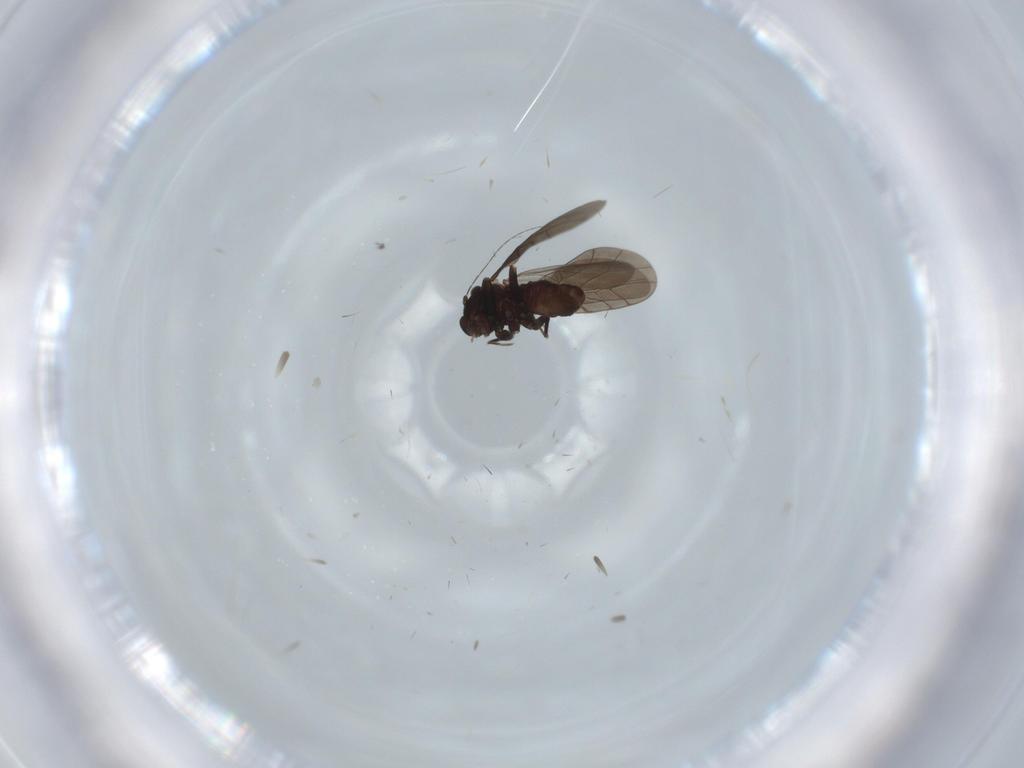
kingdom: Animalia
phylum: Arthropoda
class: Insecta
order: Psocodea
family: Lepidopsocidae
